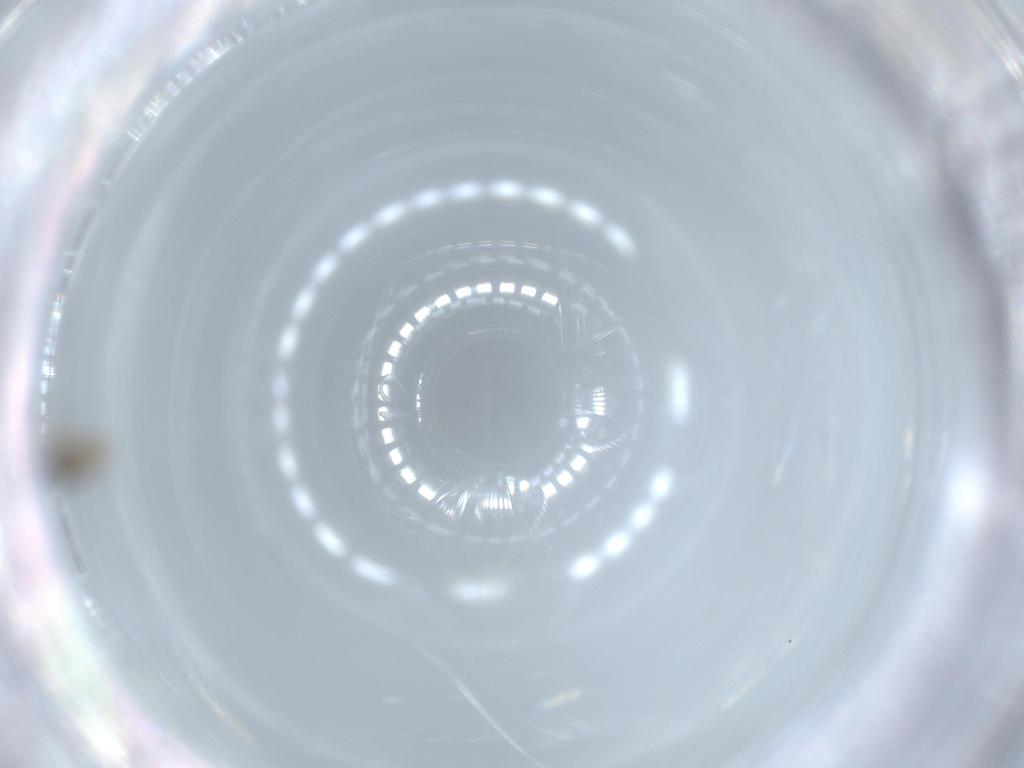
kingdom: Animalia
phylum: Arthropoda
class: Insecta
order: Diptera
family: Cecidomyiidae
